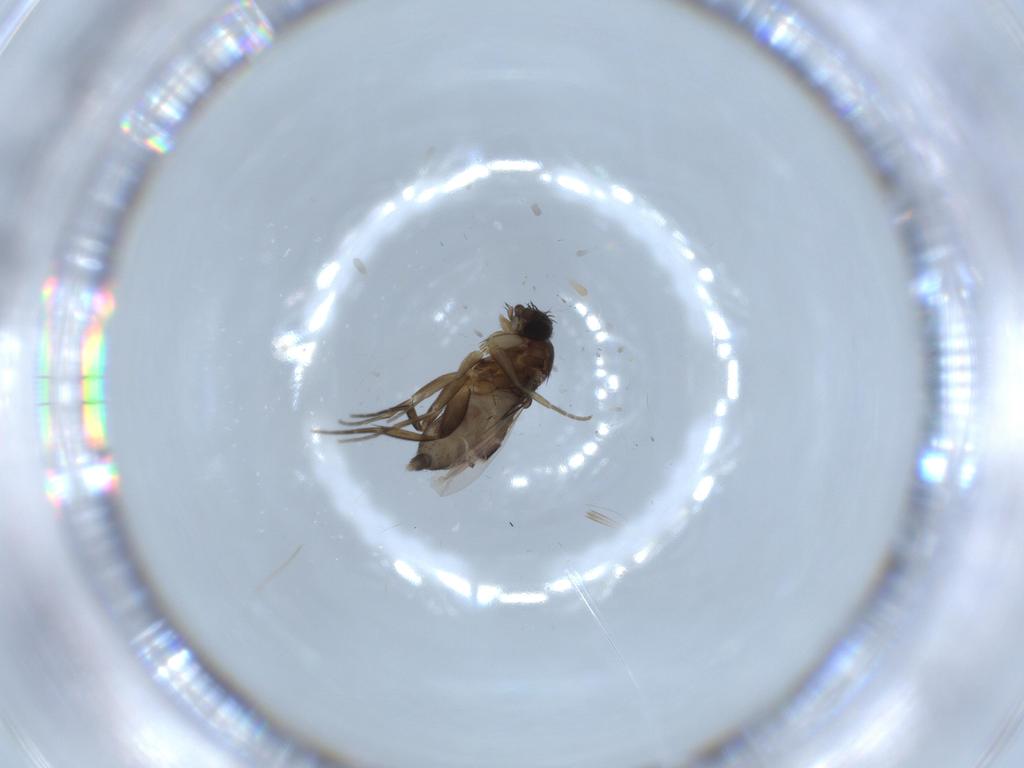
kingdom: Animalia
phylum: Arthropoda
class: Insecta
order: Diptera
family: Phoridae
